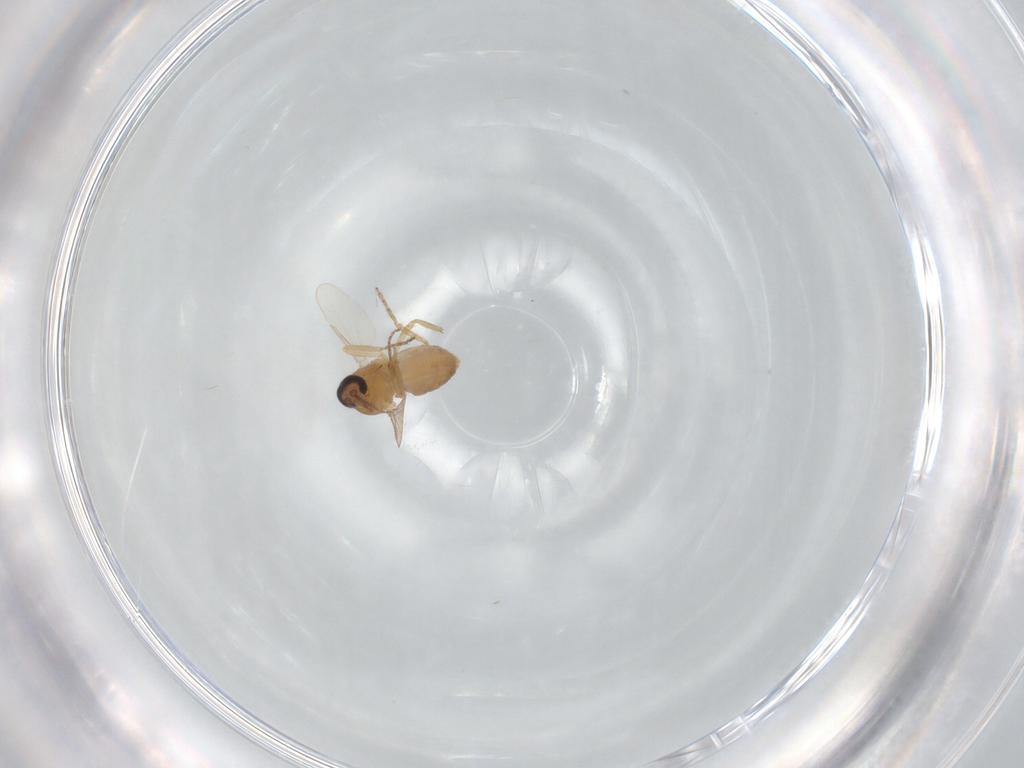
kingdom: Animalia
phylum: Arthropoda
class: Insecta
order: Diptera
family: Ceratopogonidae
